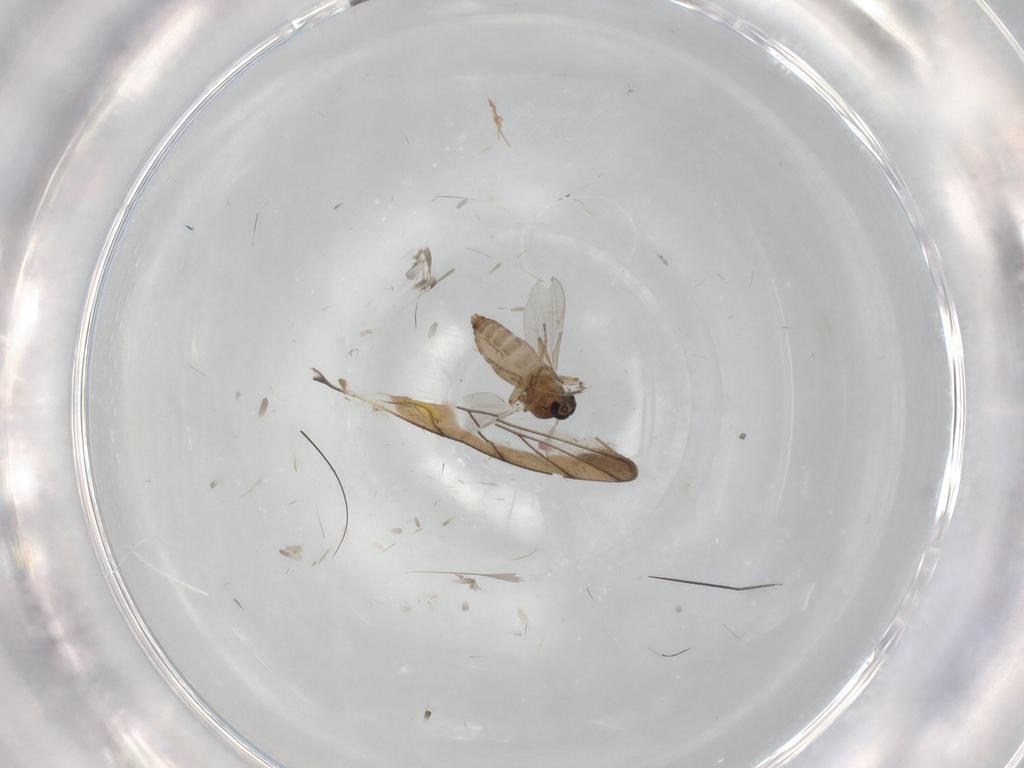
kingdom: Animalia
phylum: Arthropoda
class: Insecta
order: Diptera
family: Ceratopogonidae
